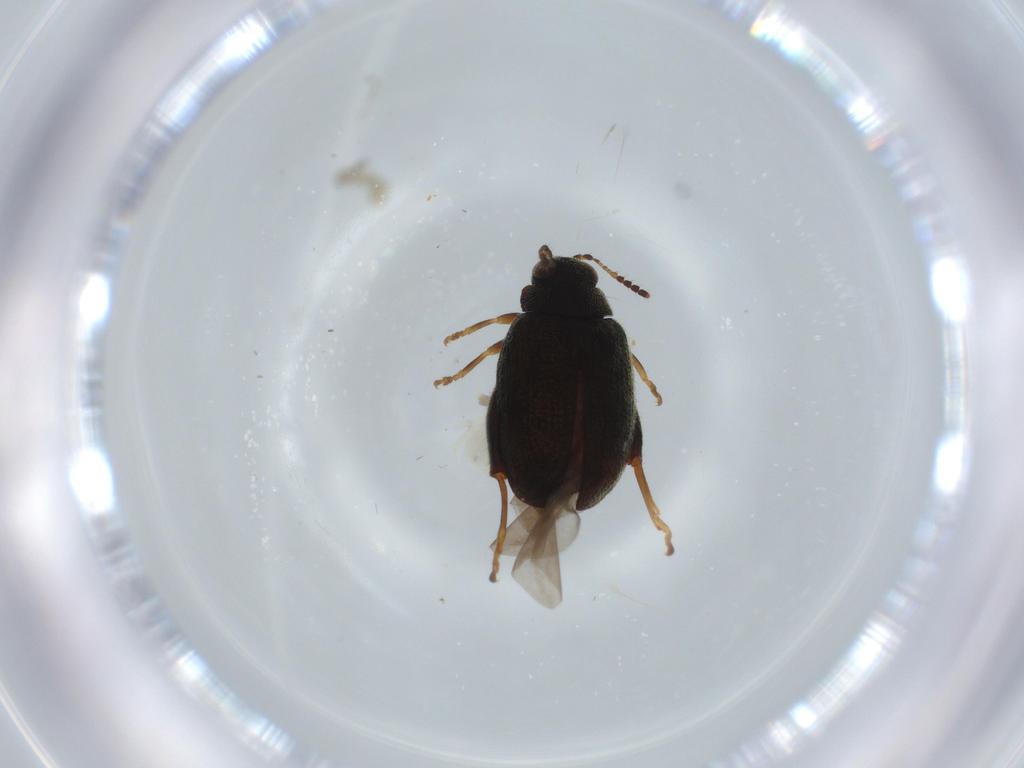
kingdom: Animalia
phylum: Arthropoda
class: Insecta
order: Coleoptera
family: Chrysomelidae
